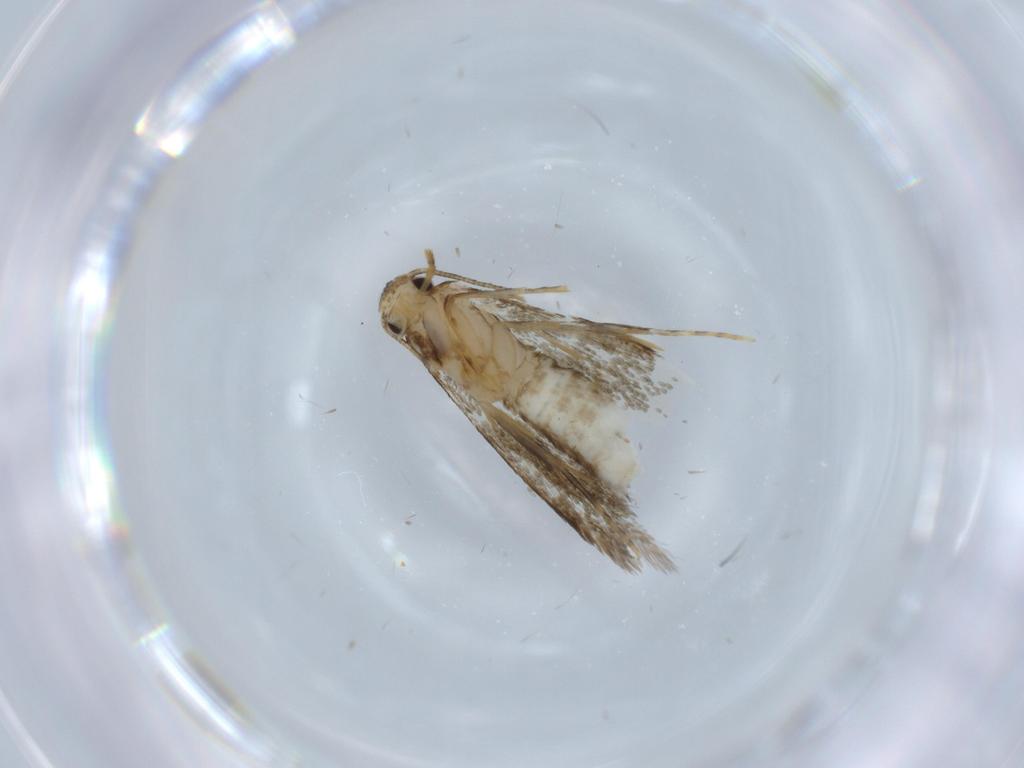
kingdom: Animalia
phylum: Arthropoda
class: Insecta
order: Lepidoptera
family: Tineidae
